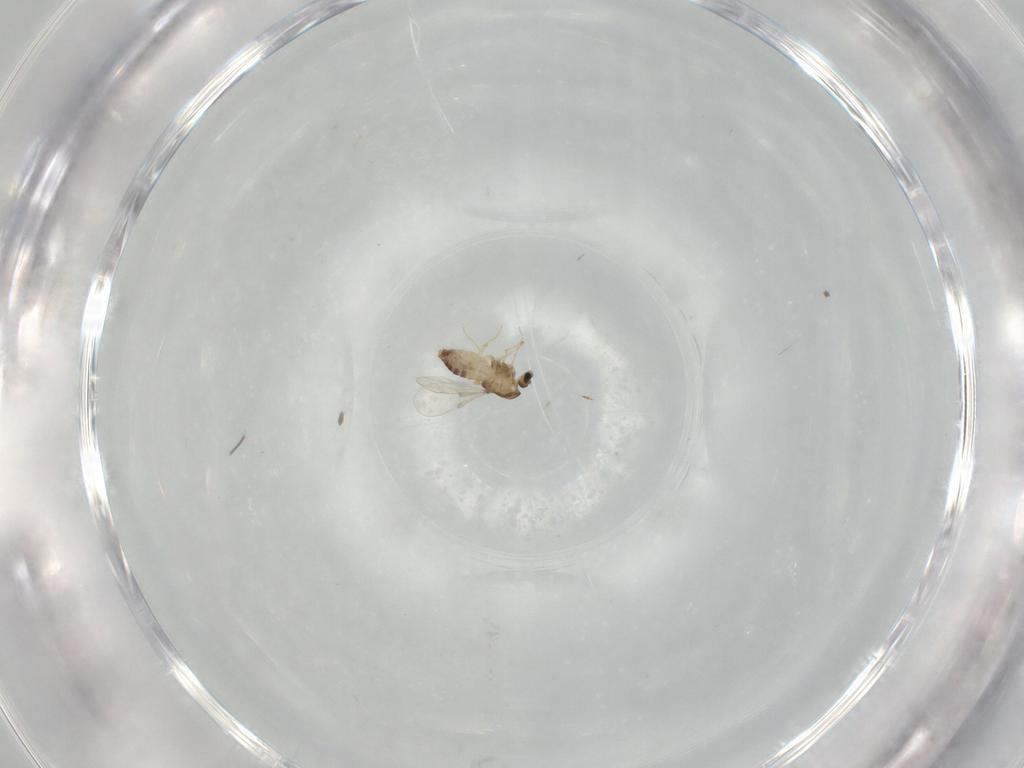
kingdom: Animalia
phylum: Arthropoda
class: Insecta
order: Diptera
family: Chironomidae
